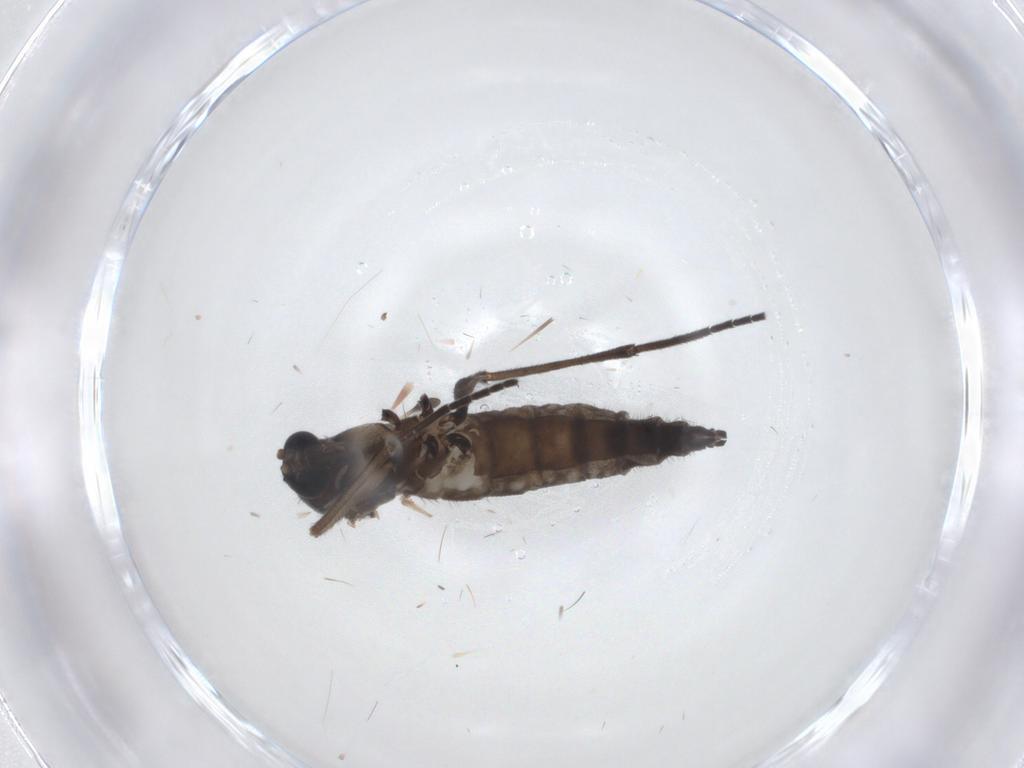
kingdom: Animalia
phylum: Arthropoda
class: Insecta
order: Diptera
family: Sciaridae
